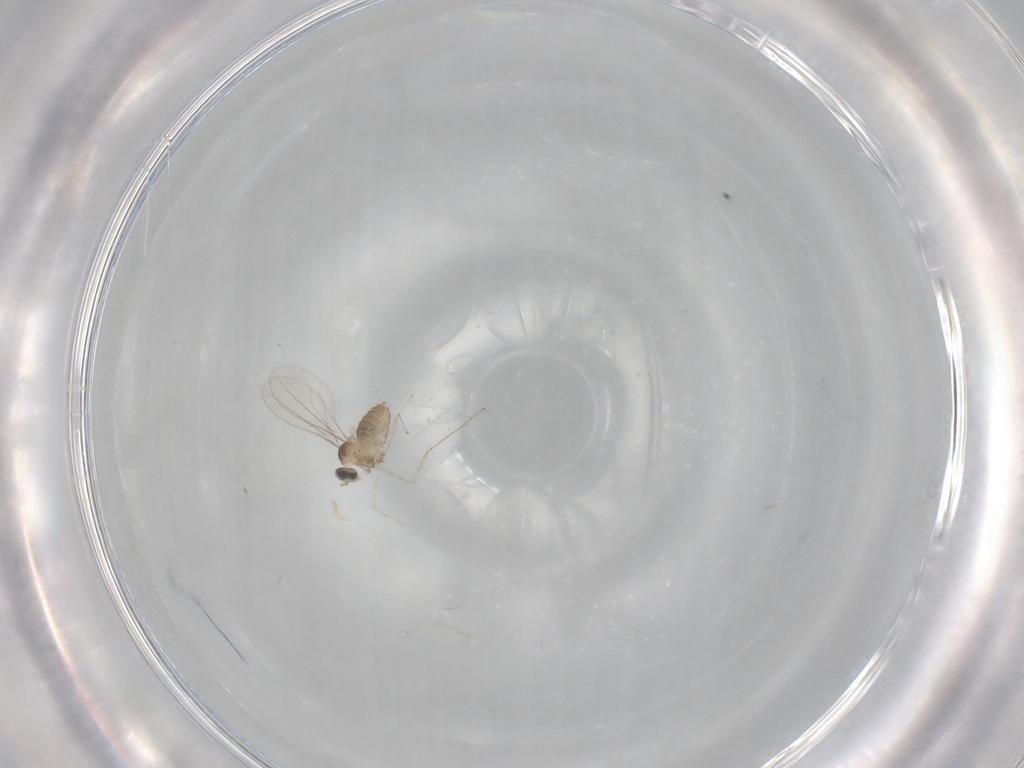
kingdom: Animalia
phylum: Arthropoda
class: Insecta
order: Diptera
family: Cecidomyiidae
